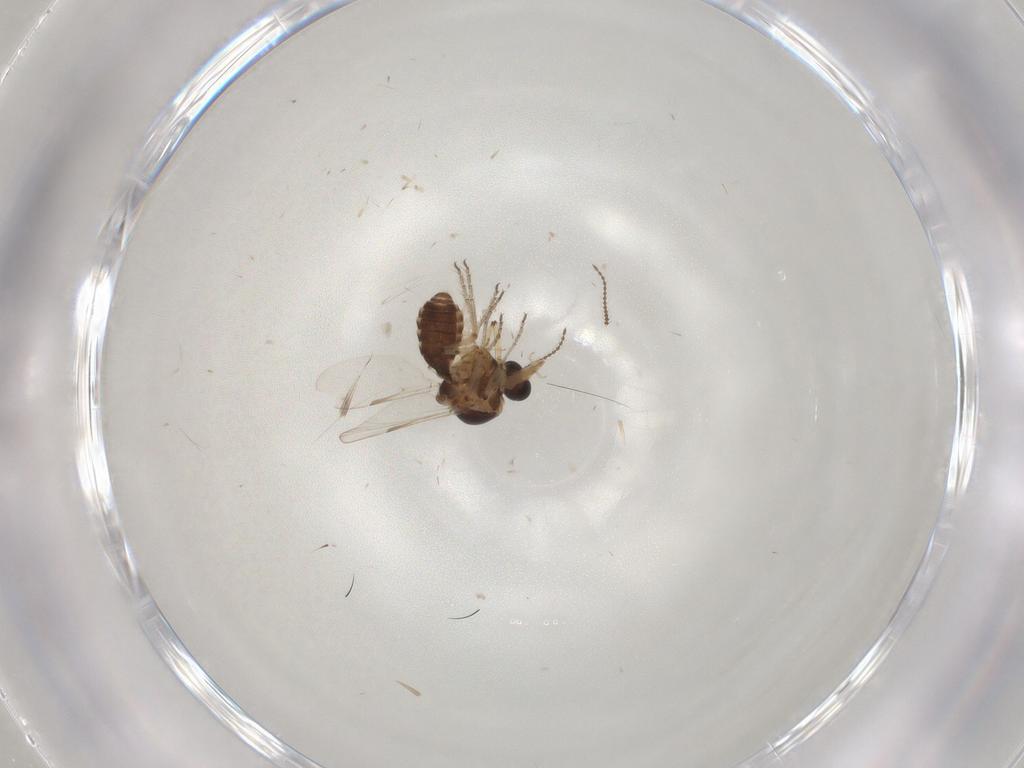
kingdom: Animalia
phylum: Arthropoda
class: Insecta
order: Diptera
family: Ceratopogonidae
